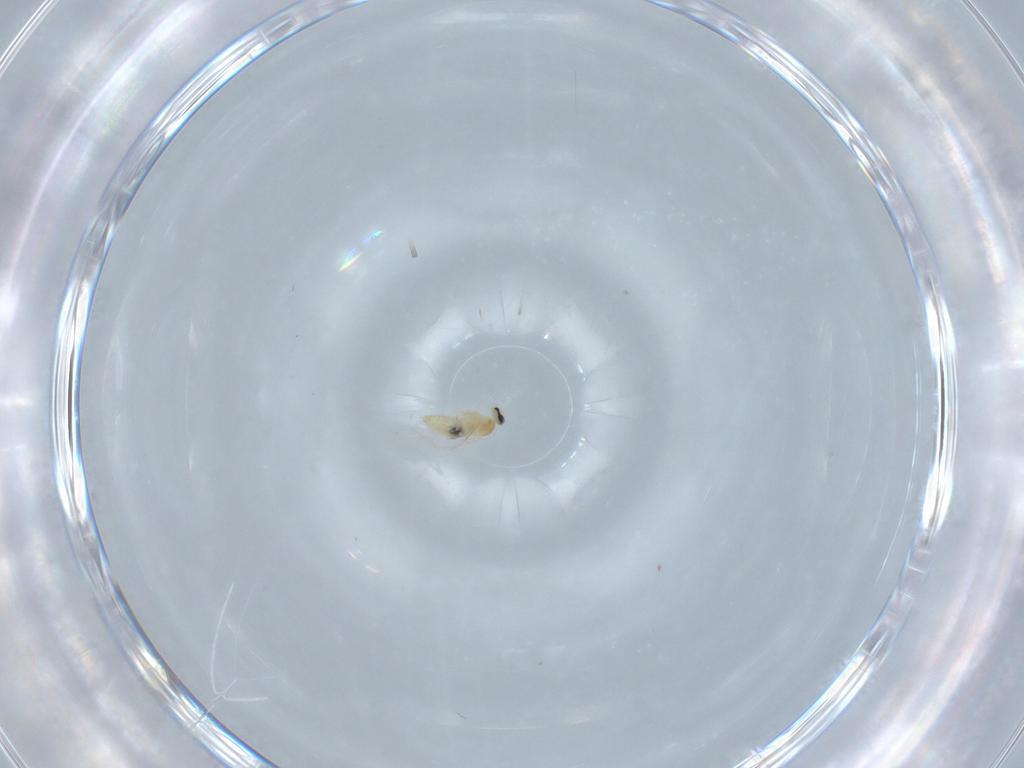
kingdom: Animalia
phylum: Arthropoda
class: Insecta
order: Diptera
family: Cecidomyiidae
